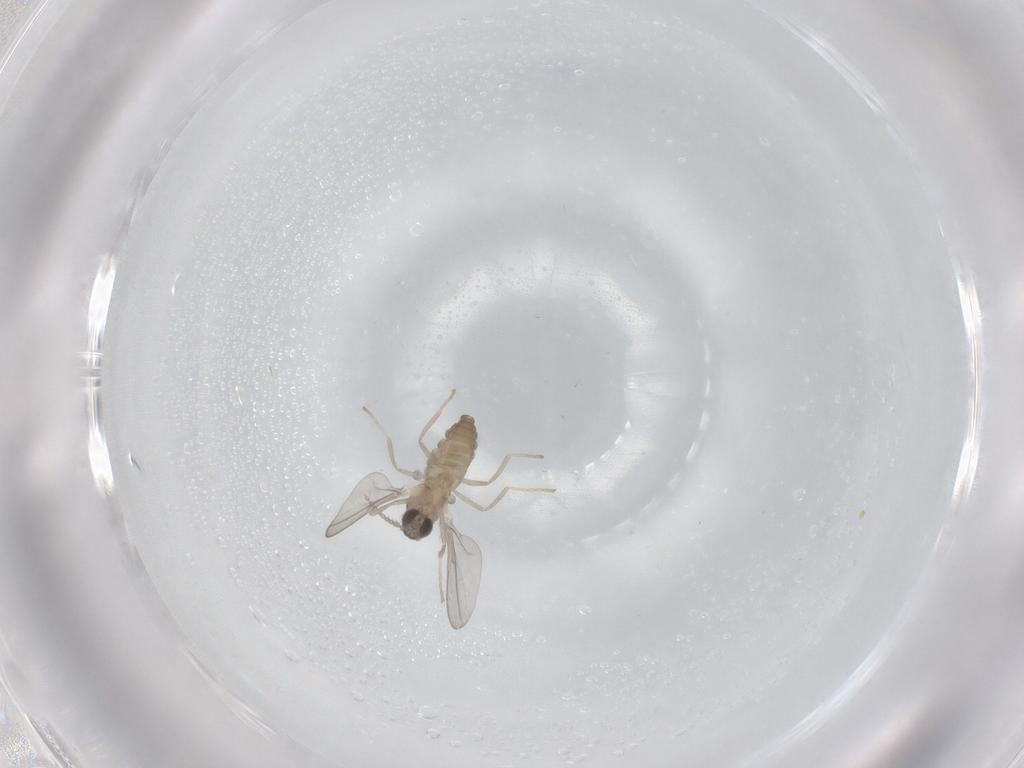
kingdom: Animalia
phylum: Arthropoda
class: Insecta
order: Diptera
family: Cecidomyiidae
